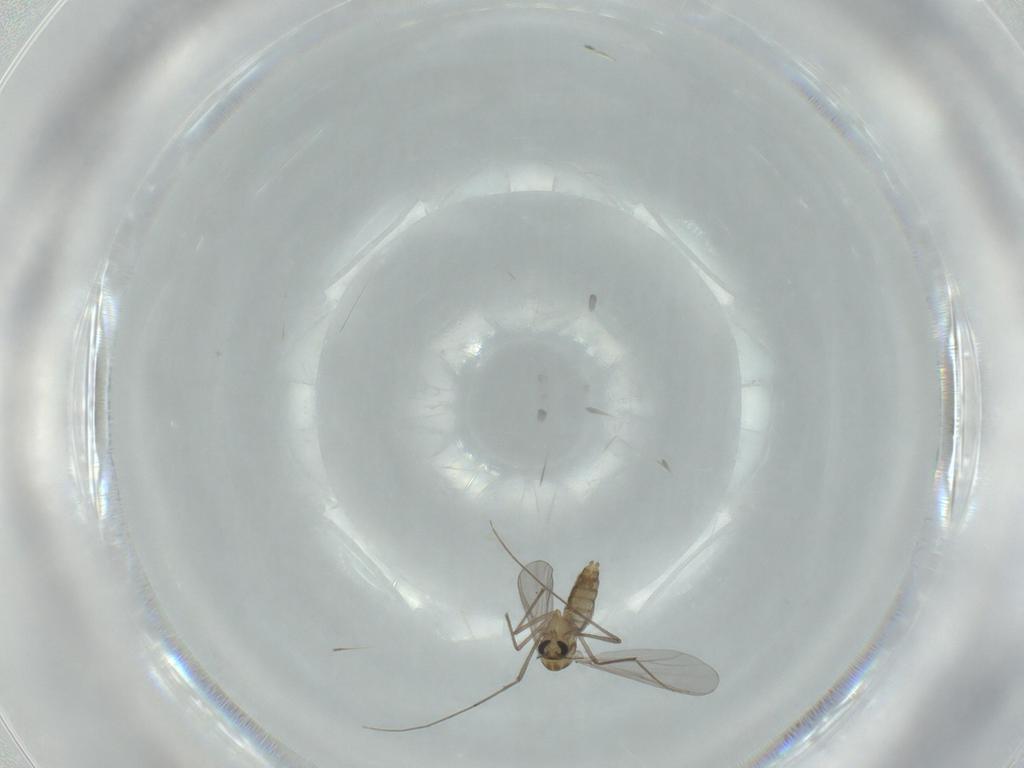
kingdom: Animalia
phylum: Arthropoda
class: Insecta
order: Diptera
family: Chironomidae
